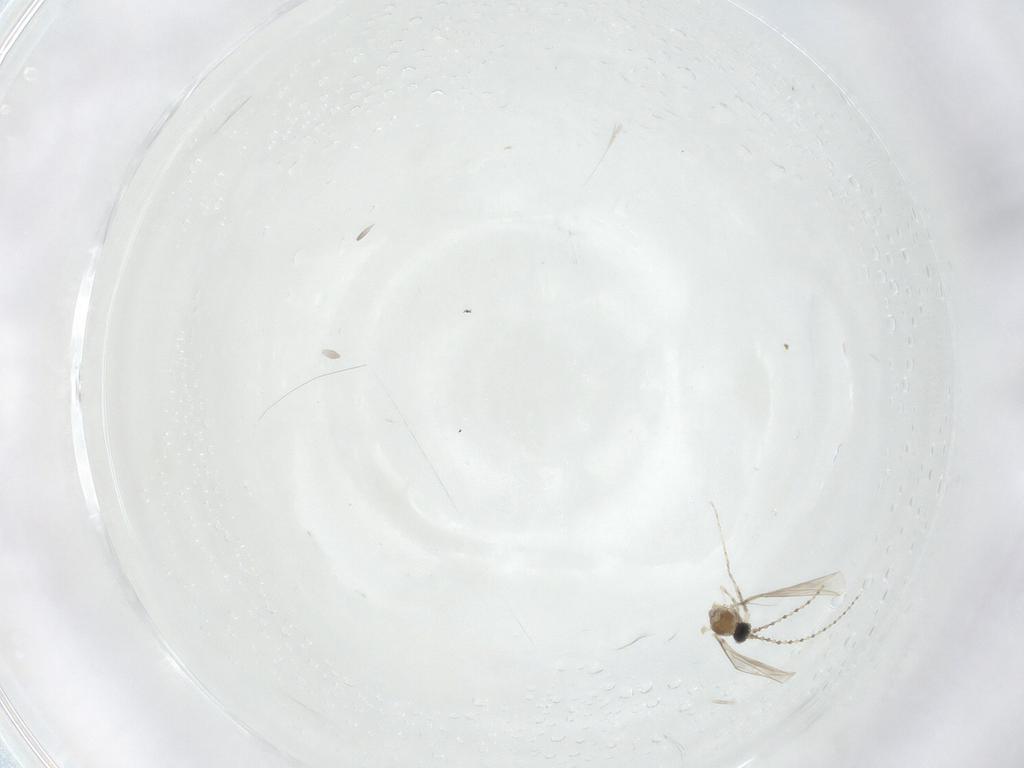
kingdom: Animalia
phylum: Arthropoda
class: Insecta
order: Diptera
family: Cecidomyiidae
